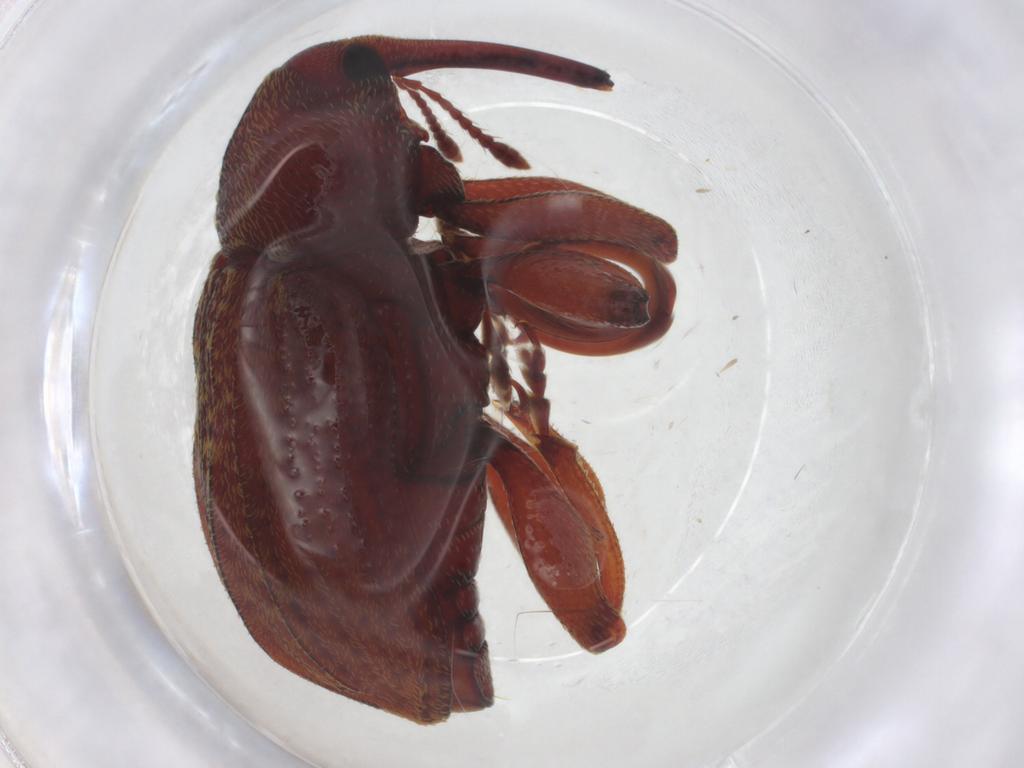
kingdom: Animalia
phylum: Arthropoda
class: Insecta
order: Coleoptera
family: Curculionidae
